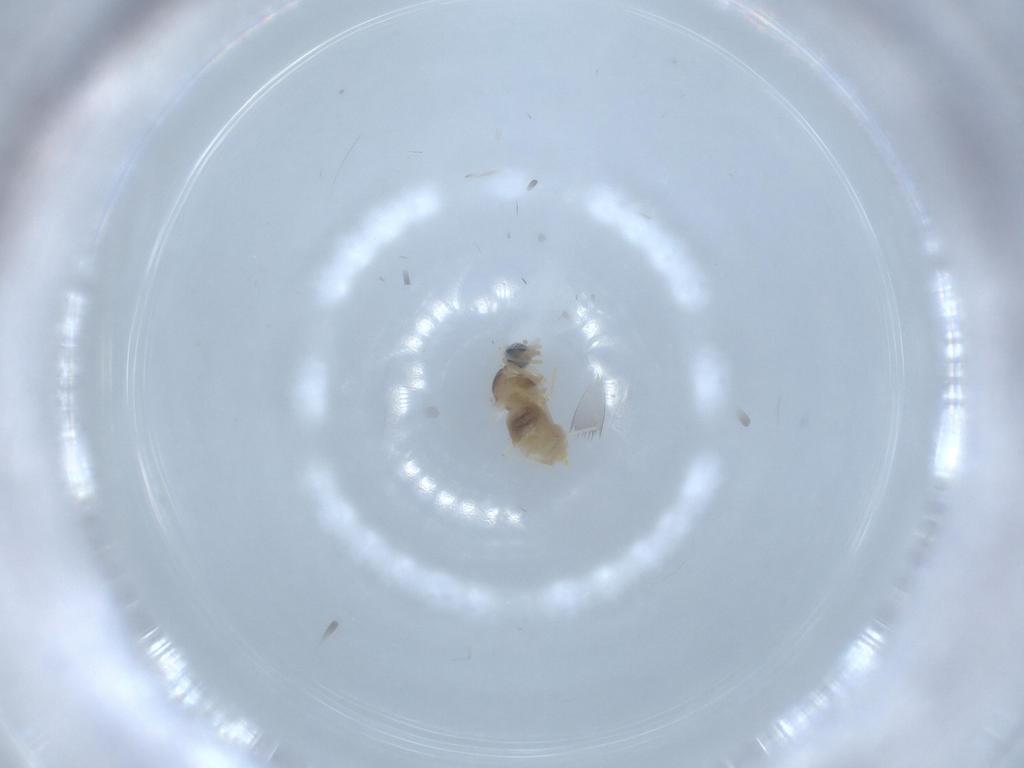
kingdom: Animalia
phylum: Arthropoda
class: Insecta
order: Diptera
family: Cecidomyiidae
